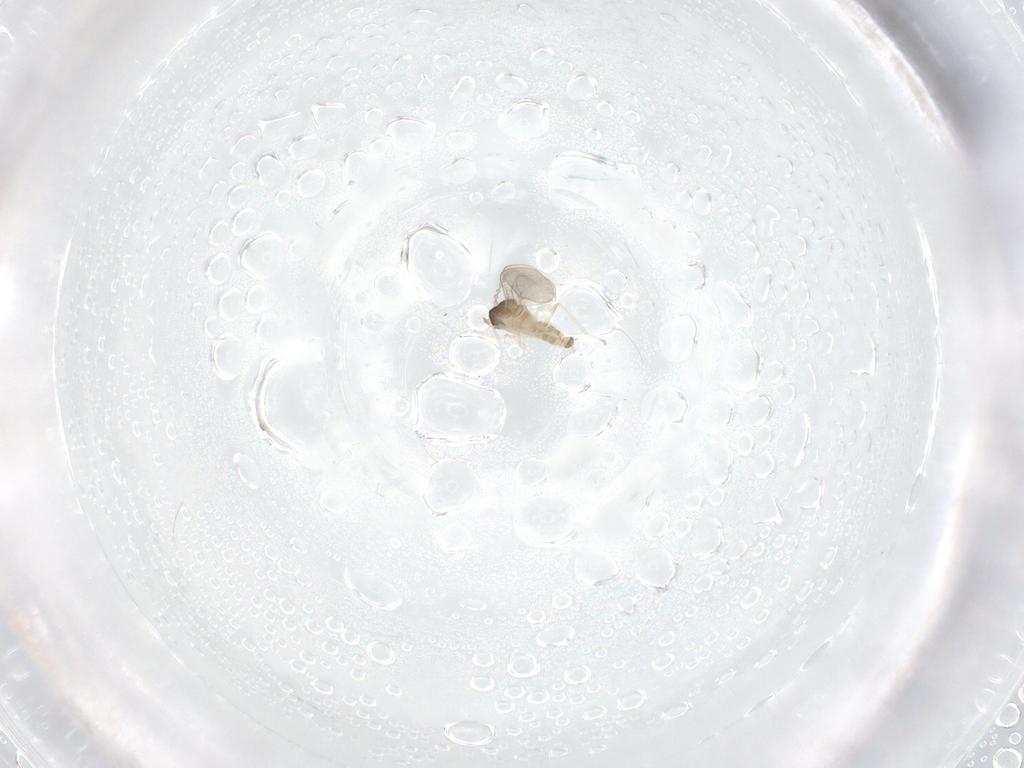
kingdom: Animalia
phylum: Arthropoda
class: Insecta
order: Diptera
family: Cecidomyiidae
